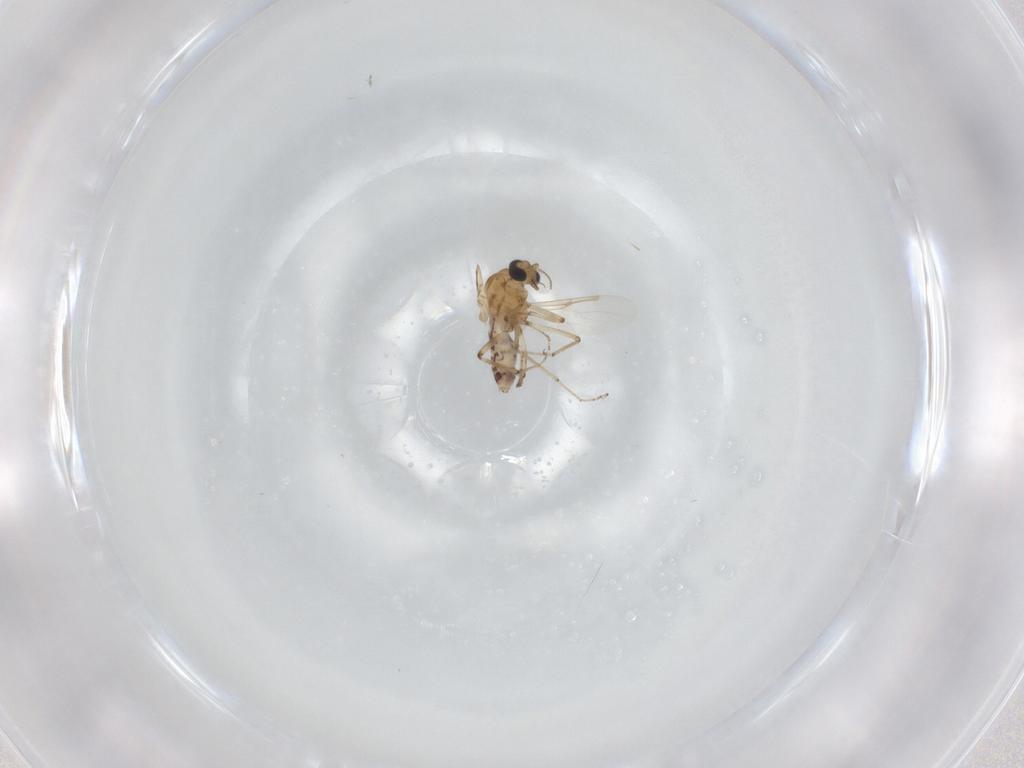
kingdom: Animalia
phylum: Arthropoda
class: Insecta
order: Diptera
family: Ceratopogonidae
